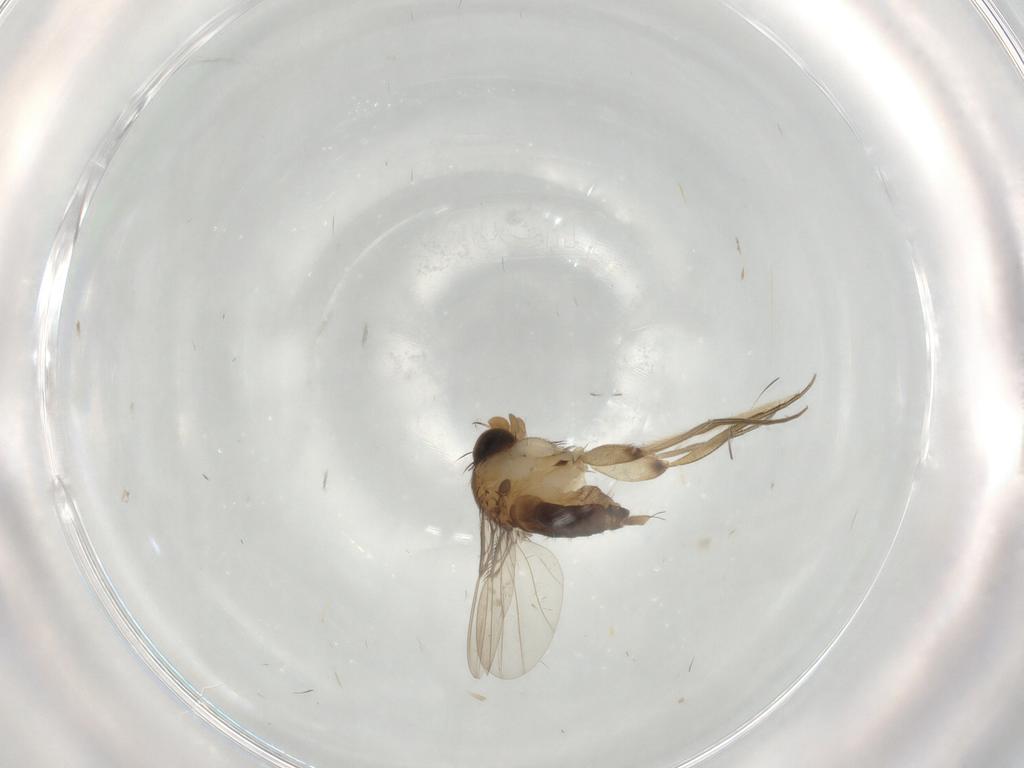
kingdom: Animalia
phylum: Arthropoda
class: Insecta
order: Diptera
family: Phoridae
